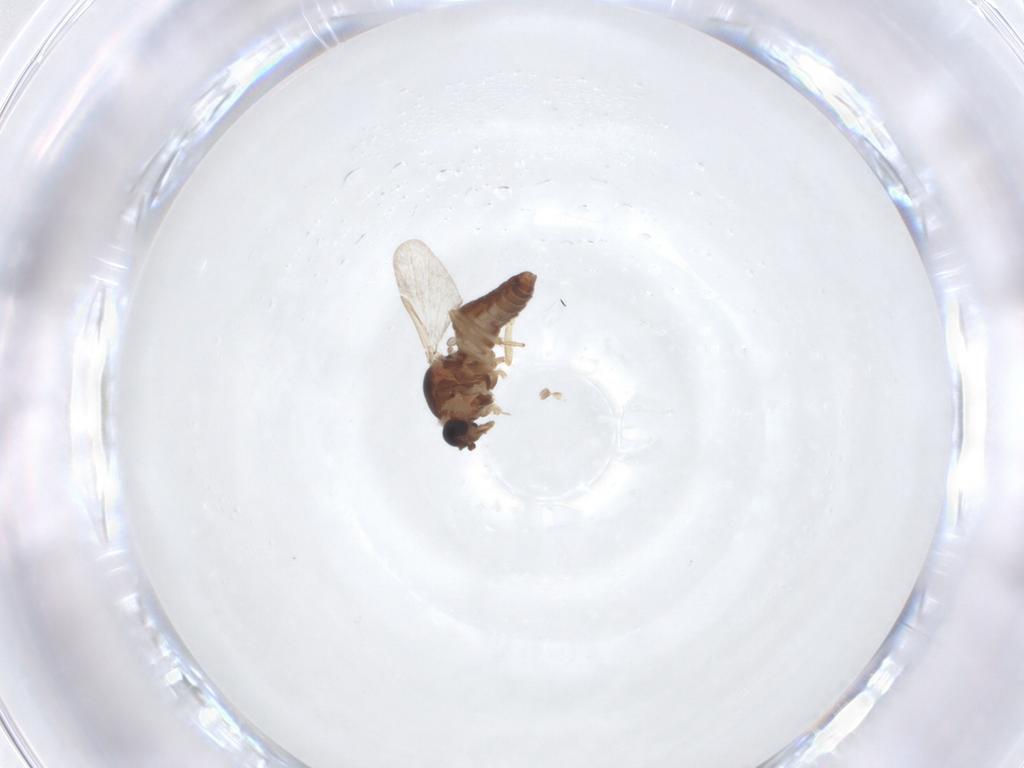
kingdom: Animalia
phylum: Arthropoda
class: Insecta
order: Diptera
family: Ceratopogonidae
